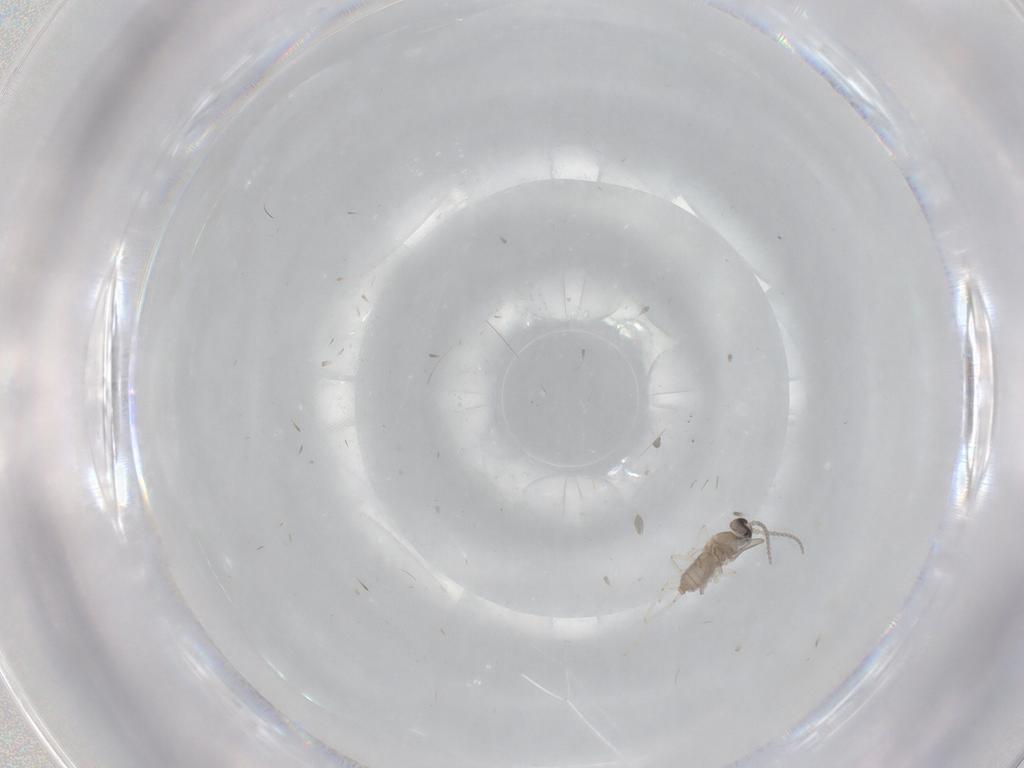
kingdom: Animalia
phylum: Arthropoda
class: Insecta
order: Diptera
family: Cecidomyiidae
